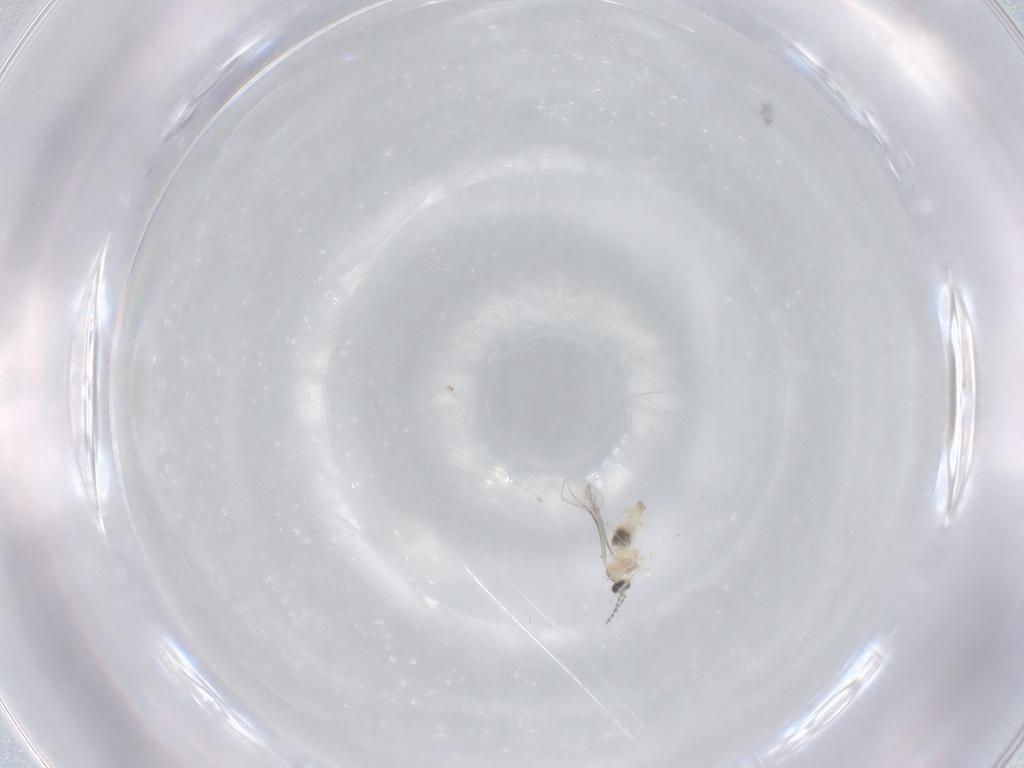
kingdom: Animalia
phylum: Arthropoda
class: Insecta
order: Diptera
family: Cecidomyiidae
